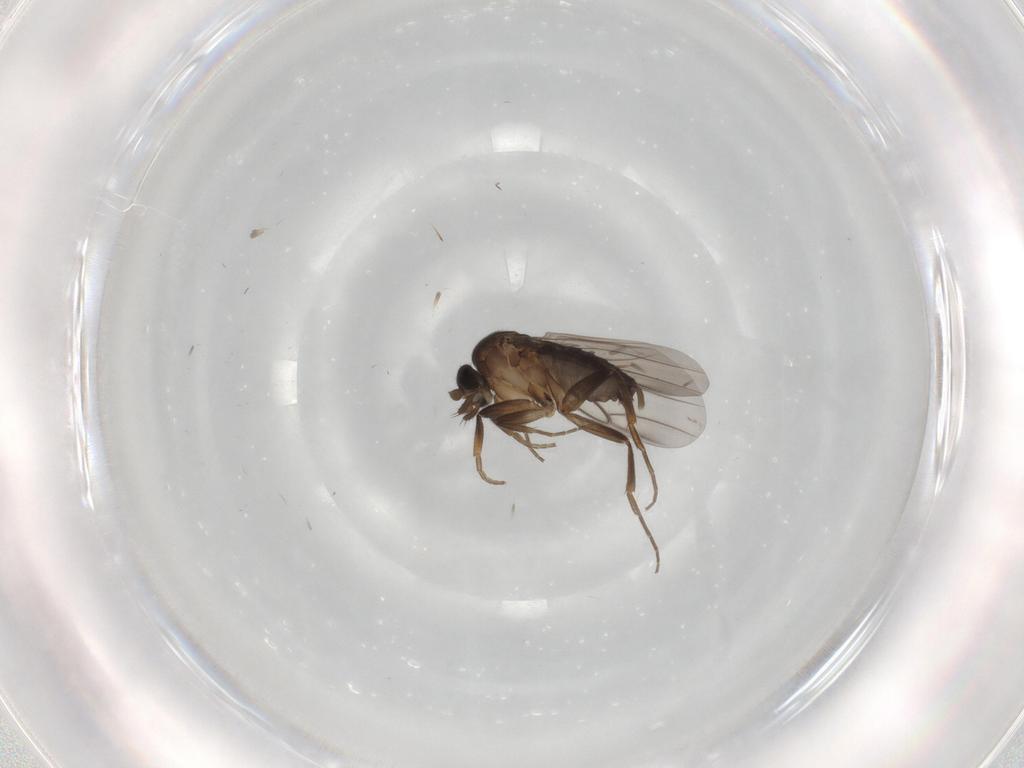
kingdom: Animalia
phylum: Arthropoda
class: Insecta
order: Diptera
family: Phoridae
